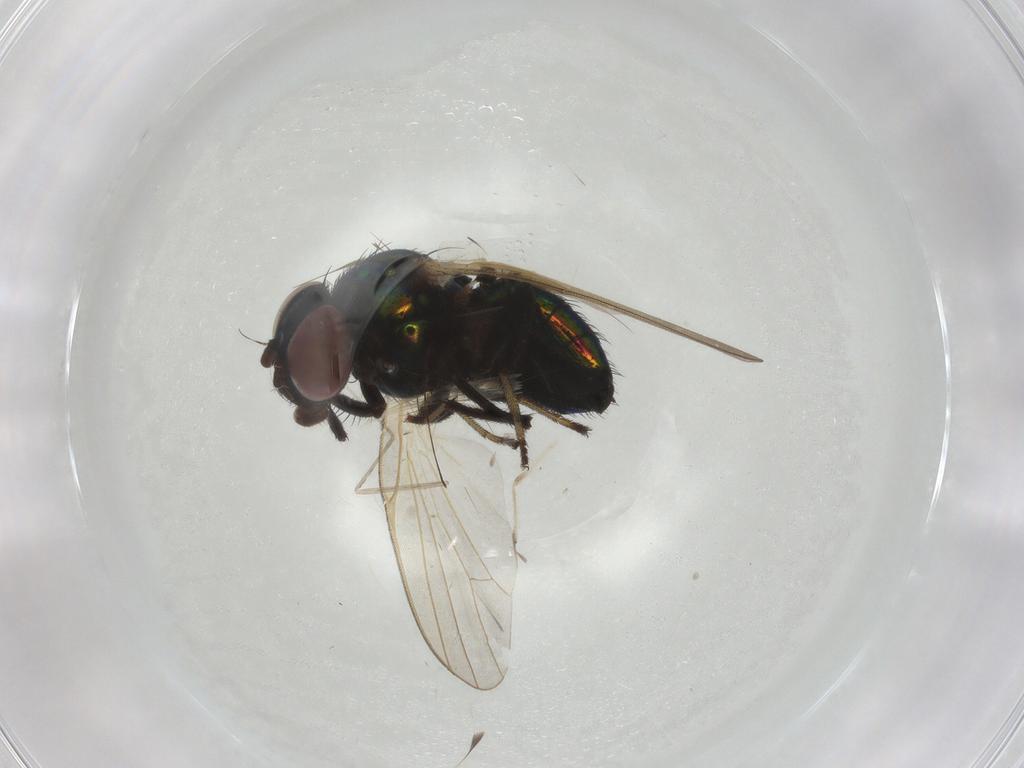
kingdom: Animalia
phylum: Arthropoda
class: Insecta
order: Diptera
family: Lonchaeidae
